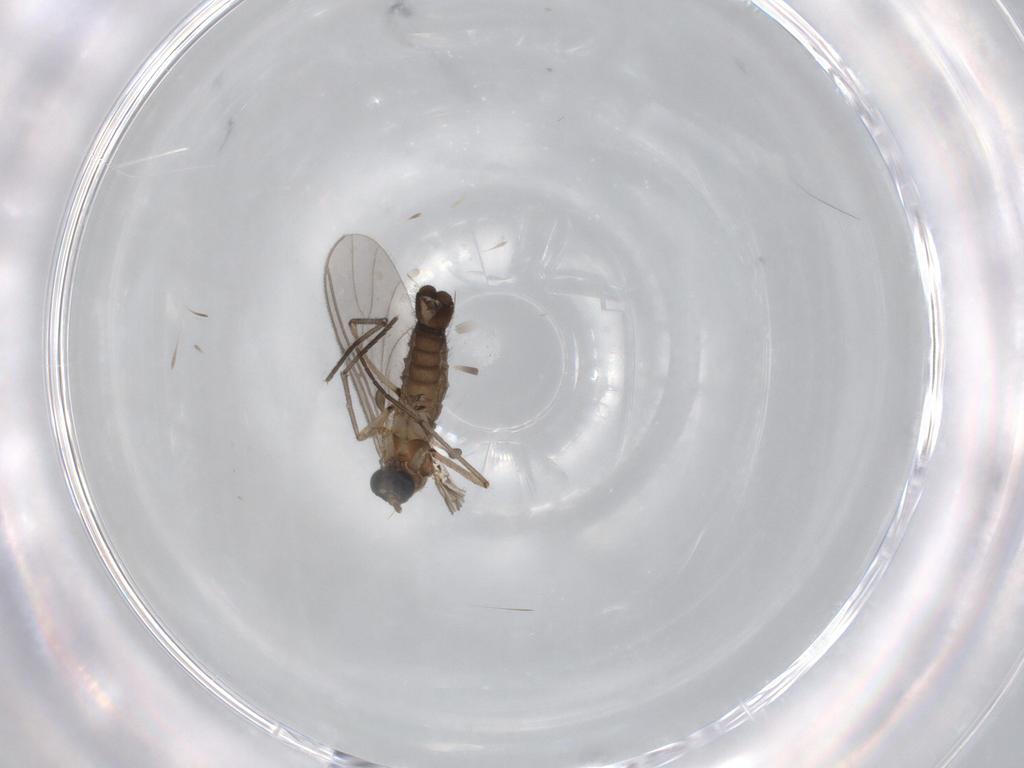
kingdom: Animalia
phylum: Arthropoda
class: Insecta
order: Diptera
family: Sciaridae
